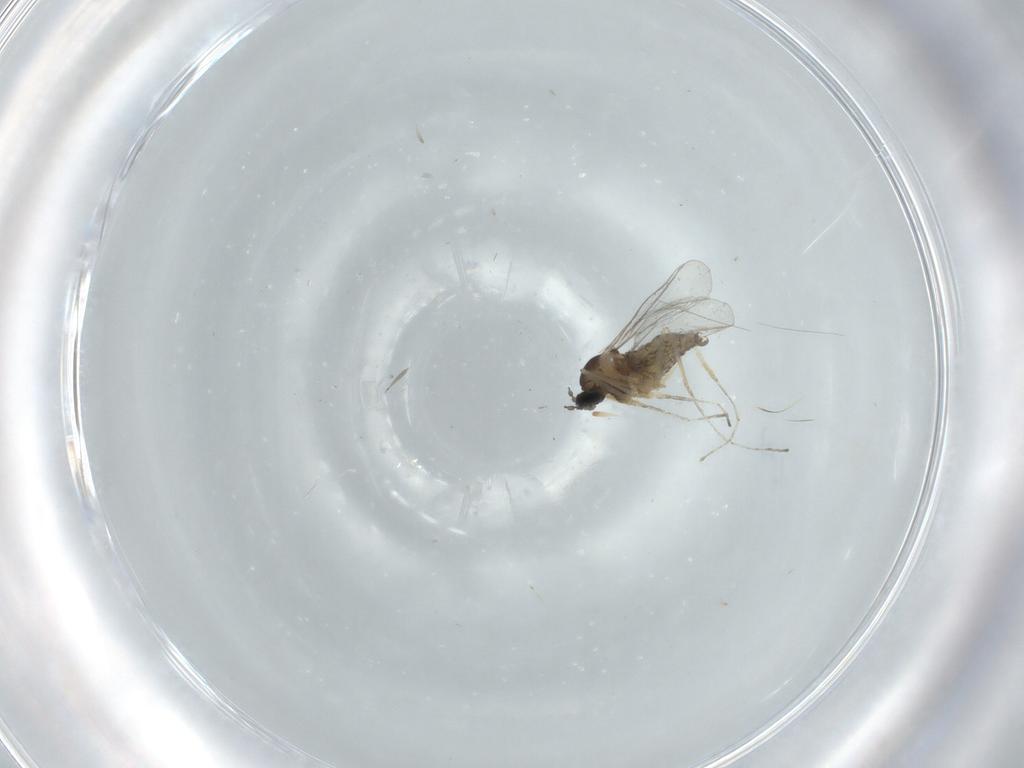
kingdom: Animalia
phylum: Arthropoda
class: Insecta
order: Diptera
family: Cecidomyiidae
